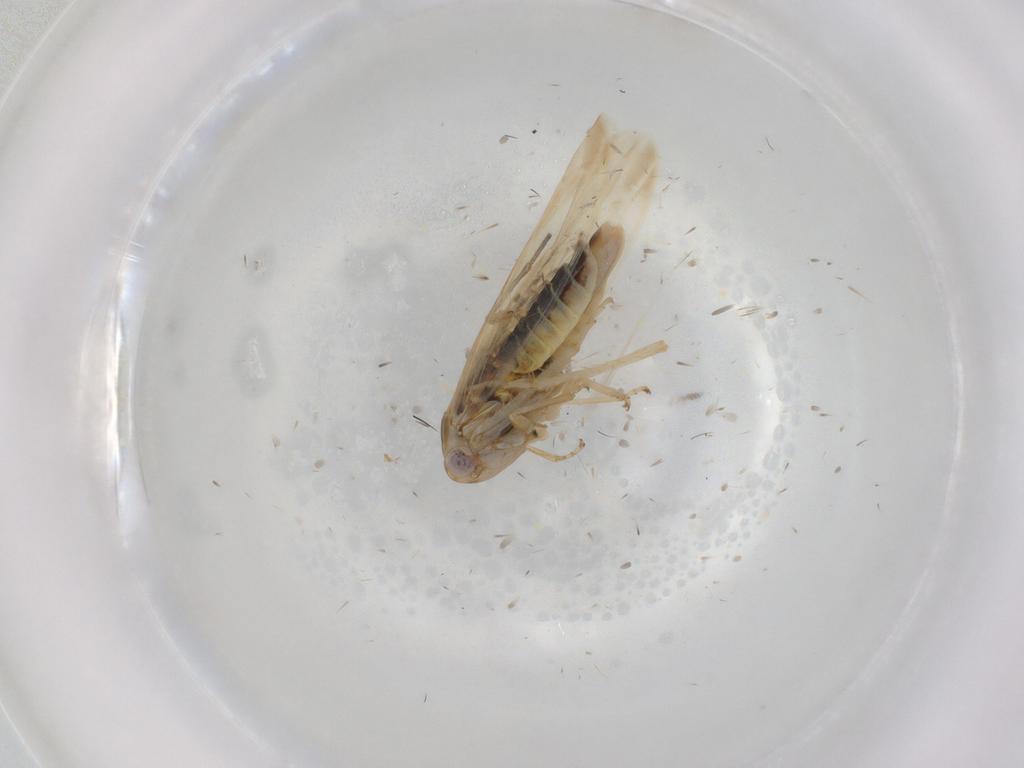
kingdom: Animalia
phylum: Arthropoda
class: Insecta
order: Hemiptera
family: Cicadellidae
